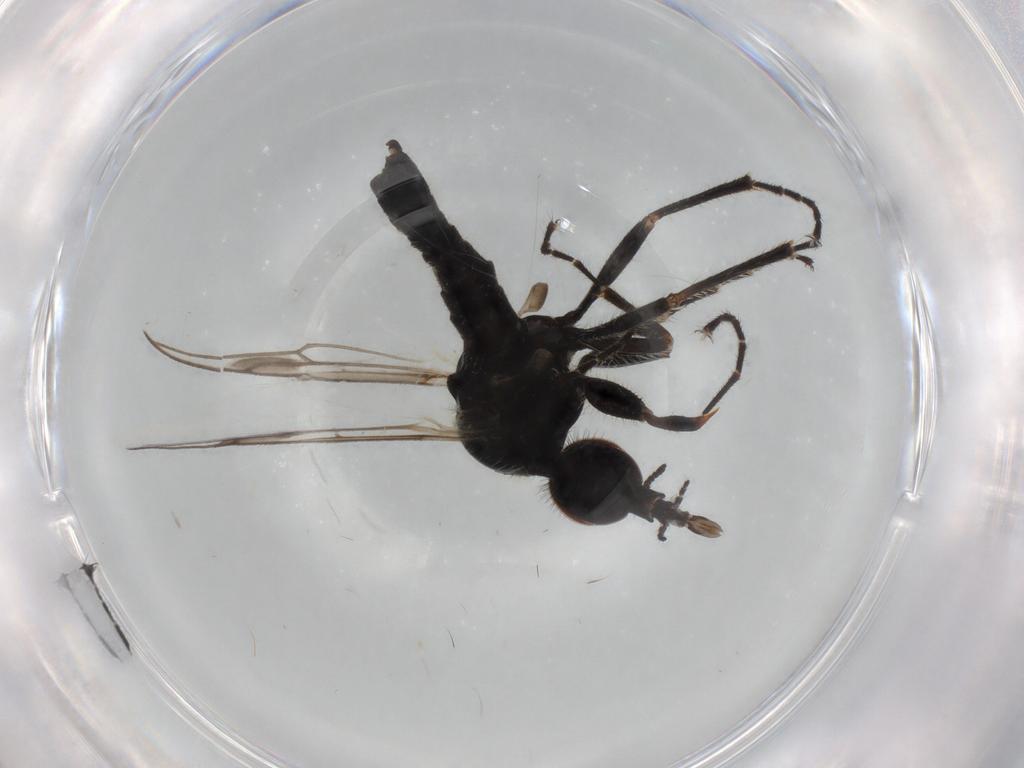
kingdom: Animalia
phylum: Arthropoda
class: Insecta
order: Diptera
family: Bibionidae
